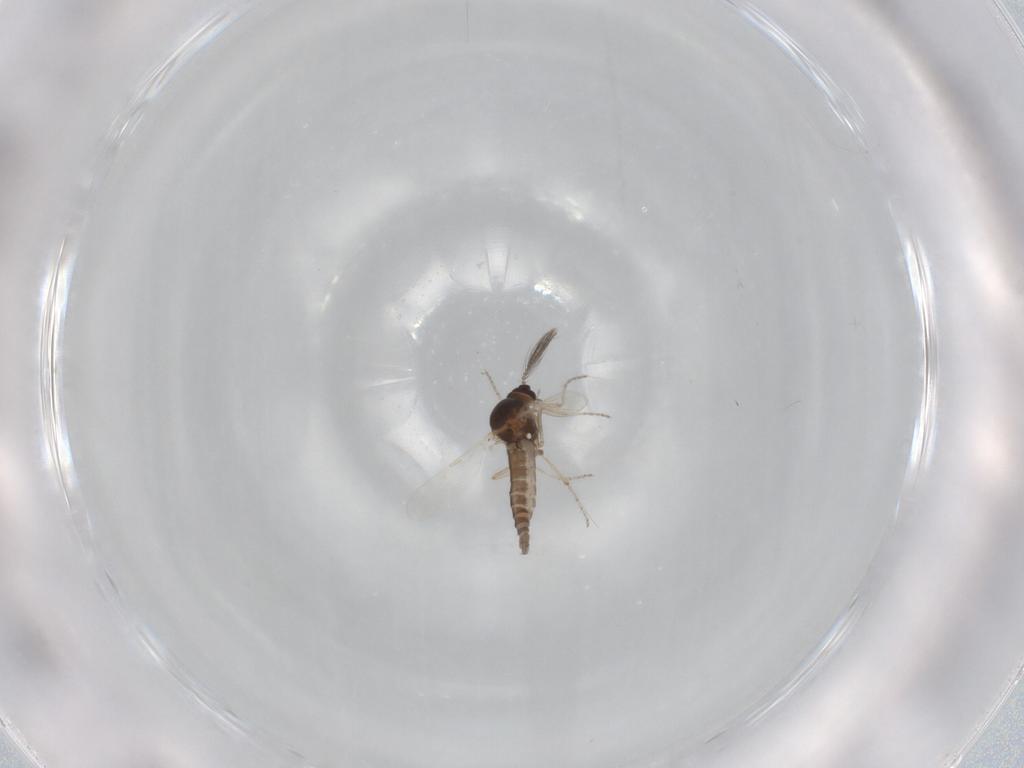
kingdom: Animalia
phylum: Arthropoda
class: Insecta
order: Diptera
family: Ceratopogonidae
